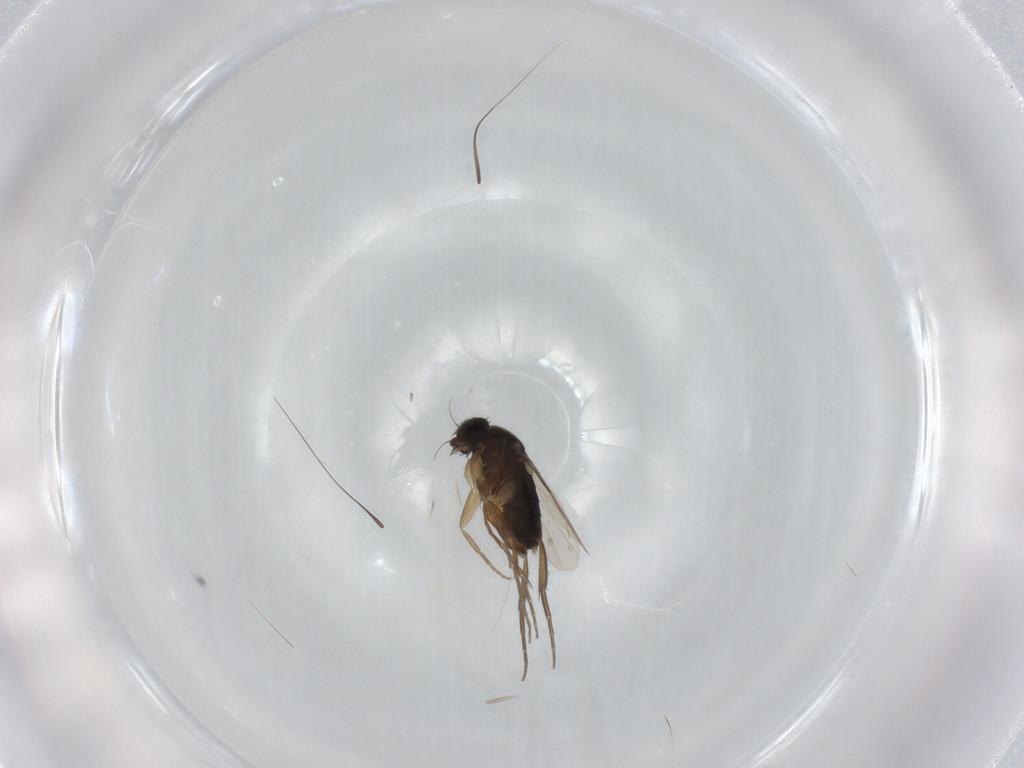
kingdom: Animalia
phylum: Arthropoda
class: Insecta
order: Diptera
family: Phoridae
